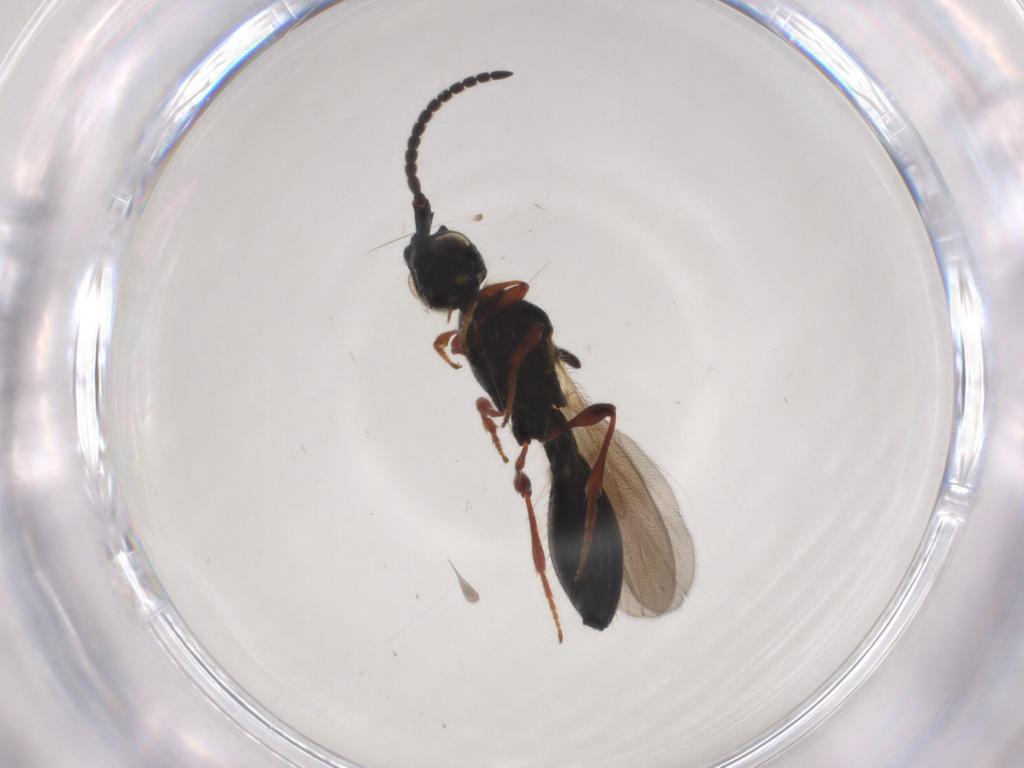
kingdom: Animalia
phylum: Arthropoda
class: Insecta
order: Hymenoptera
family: Diapriidae
